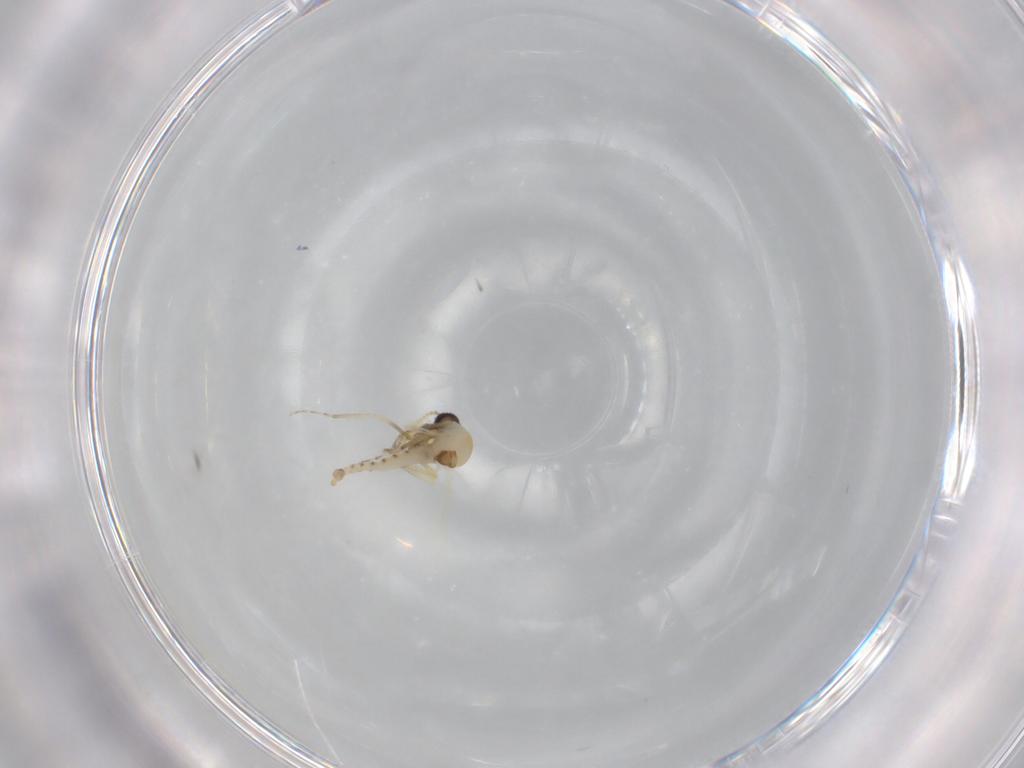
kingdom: Animalia
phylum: Arthropoda
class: Insecta
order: Diptera
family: Ceratopogonidae
